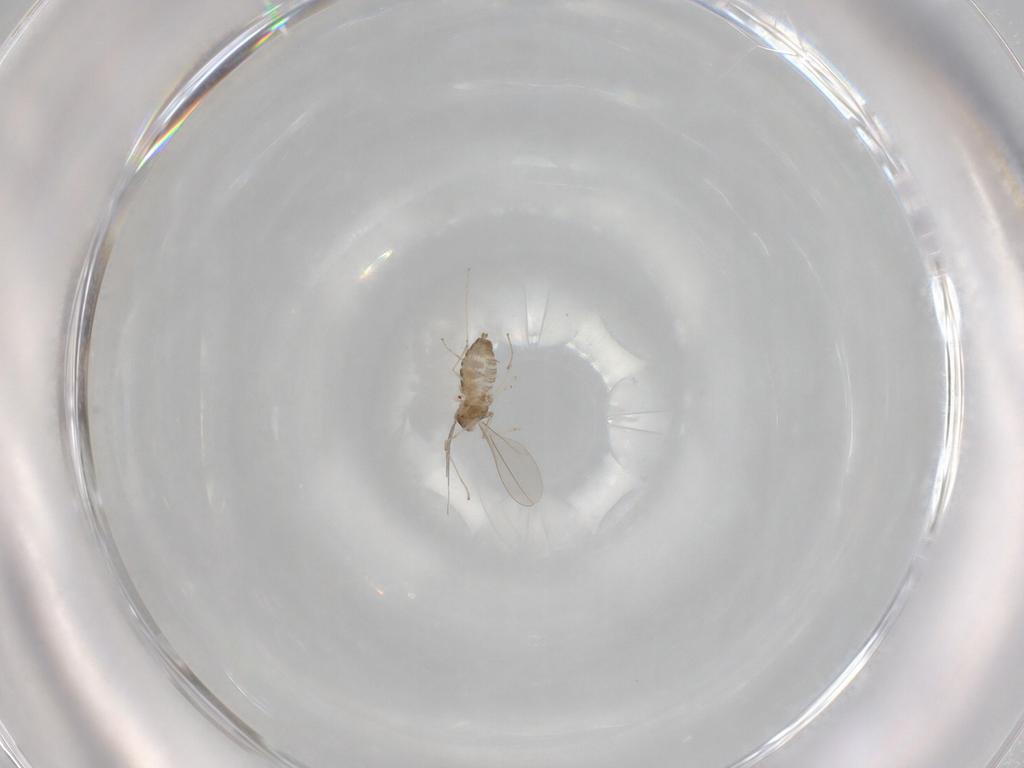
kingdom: Animalia
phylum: Arthropoda
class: Insecta
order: Diptera
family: Cecidomyiidae
